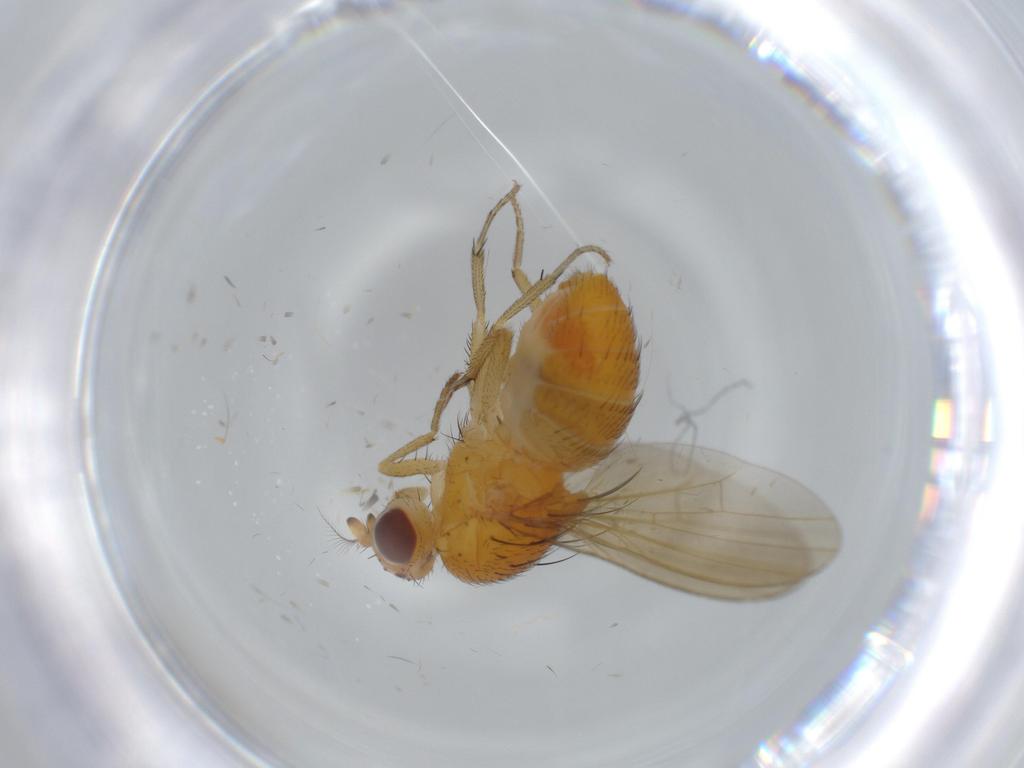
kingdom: Animalia
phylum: Arthropoda
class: Insecta
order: Diptera
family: Lauxaniidae
